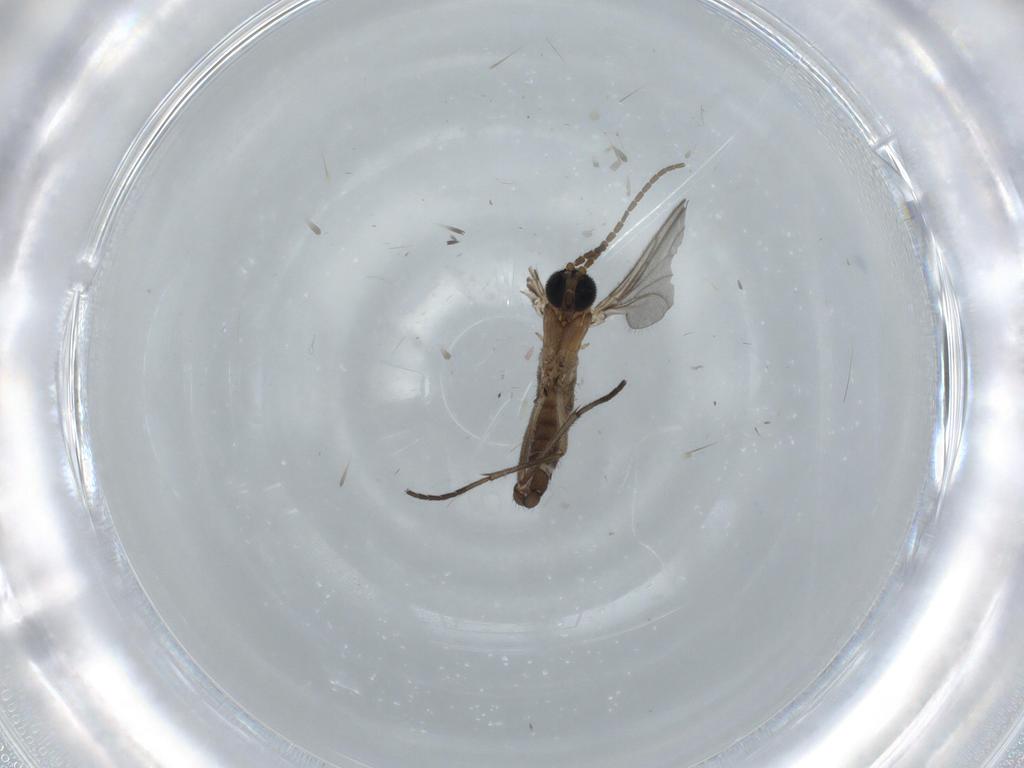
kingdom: Animalia
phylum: Arthropoda
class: Insecta
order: Diptera
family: Sciaridae
